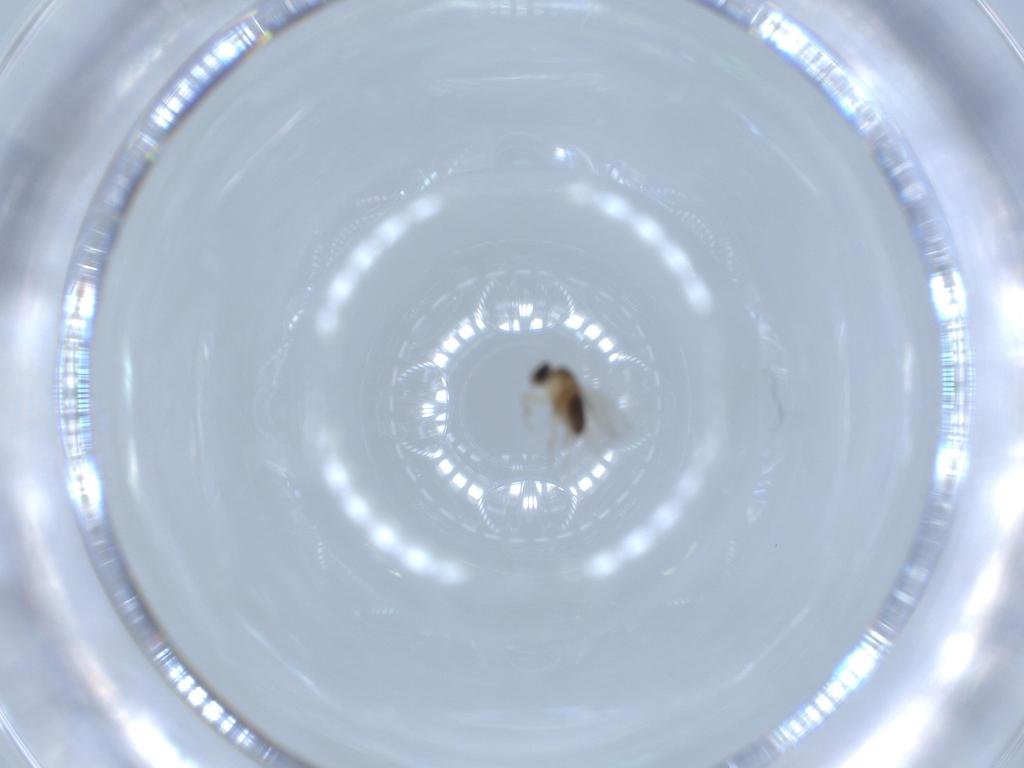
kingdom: Animalia
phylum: Arthropoda
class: Insecta
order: Diptera
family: Phoridae
